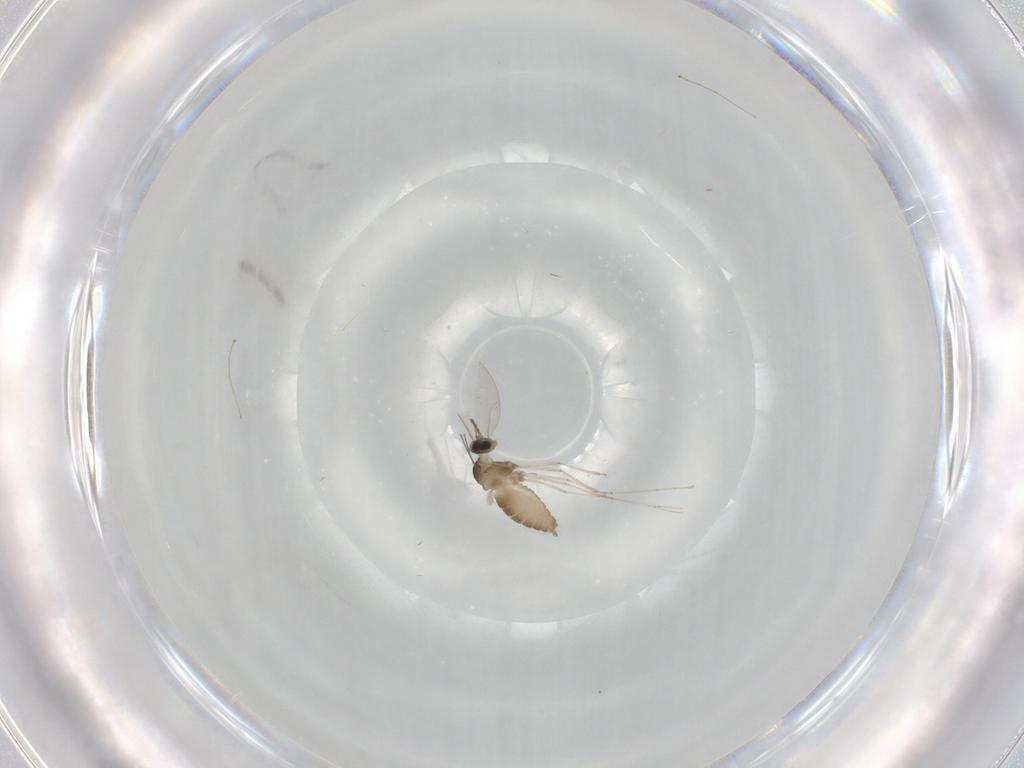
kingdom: Animalia
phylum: Arthropoda
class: Insecta
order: Diptera
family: Cecidomyiidae
